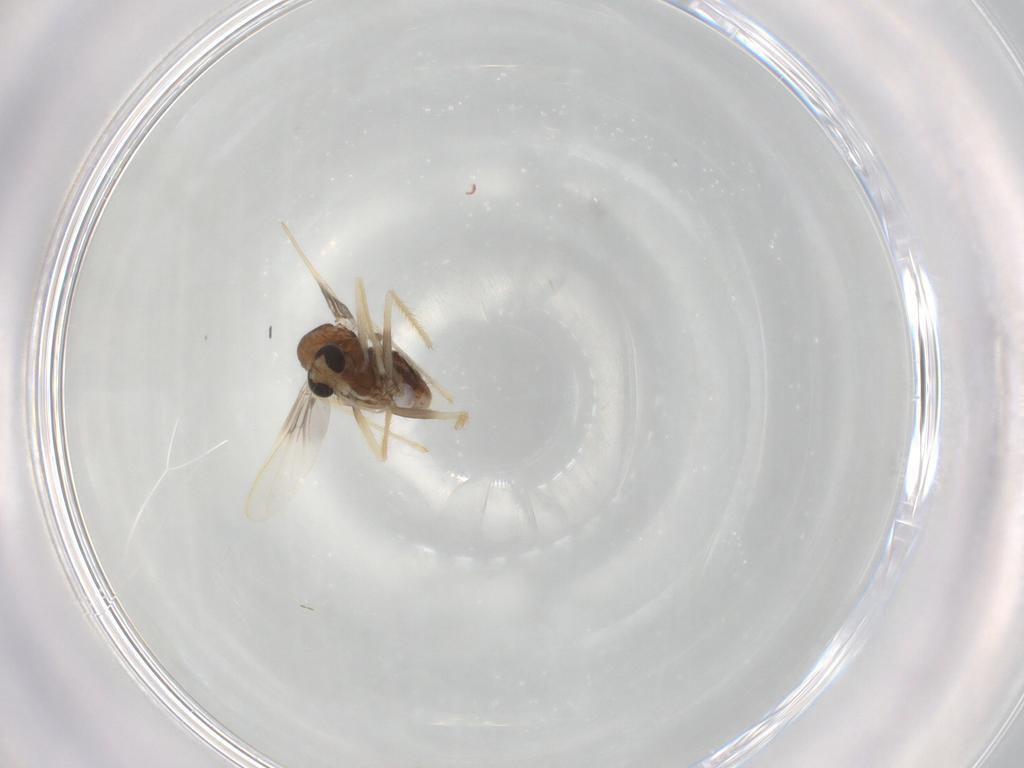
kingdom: Animalia
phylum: Arthropoda
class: Insecta
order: Diptera
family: Chironomidae
